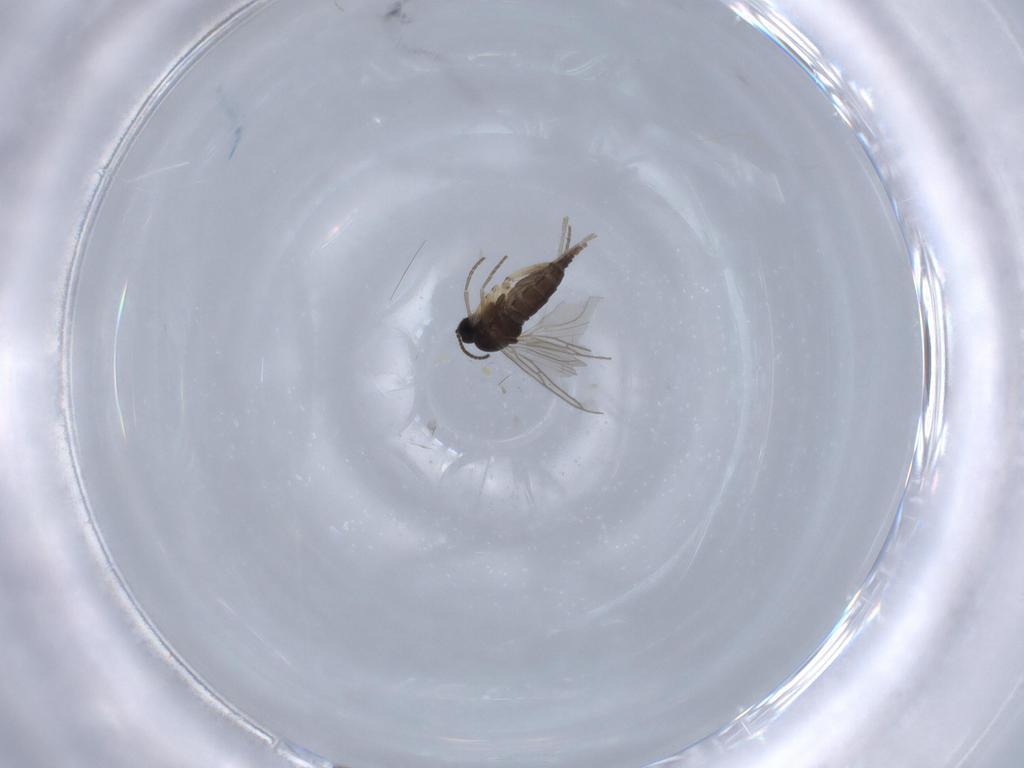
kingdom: Animalia
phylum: Arthropoda
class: Insecta
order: Diptera
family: Sciaridae
